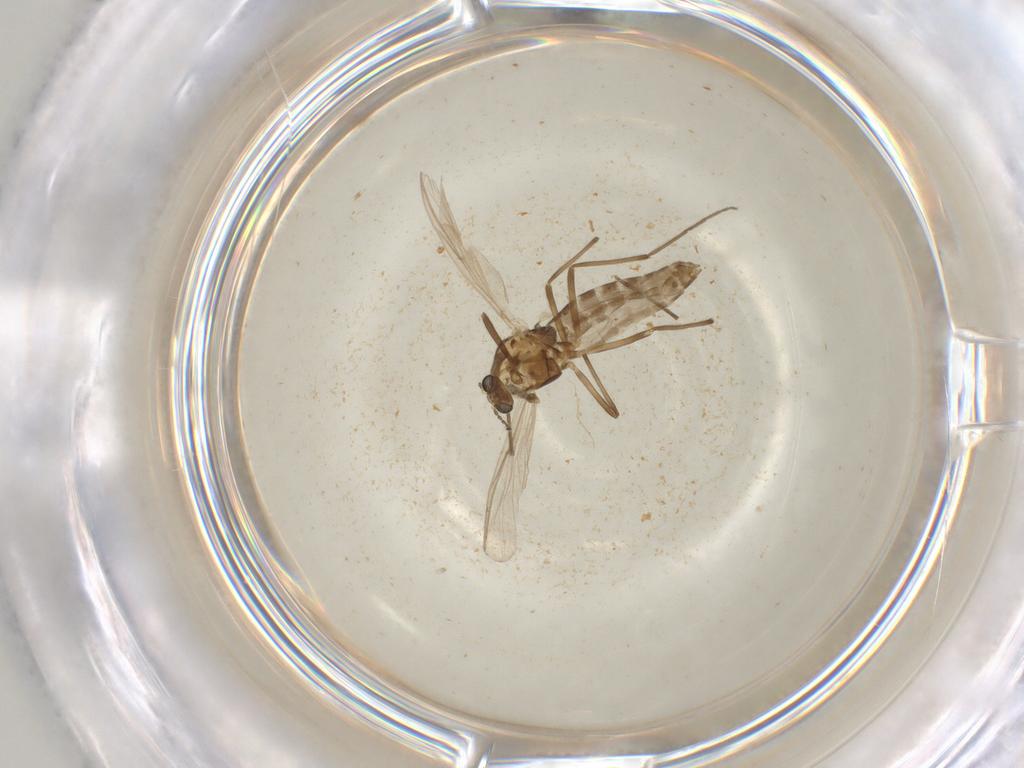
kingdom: Animalia
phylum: Arthropoda
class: Insecta
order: Diptera
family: Chironomidae
